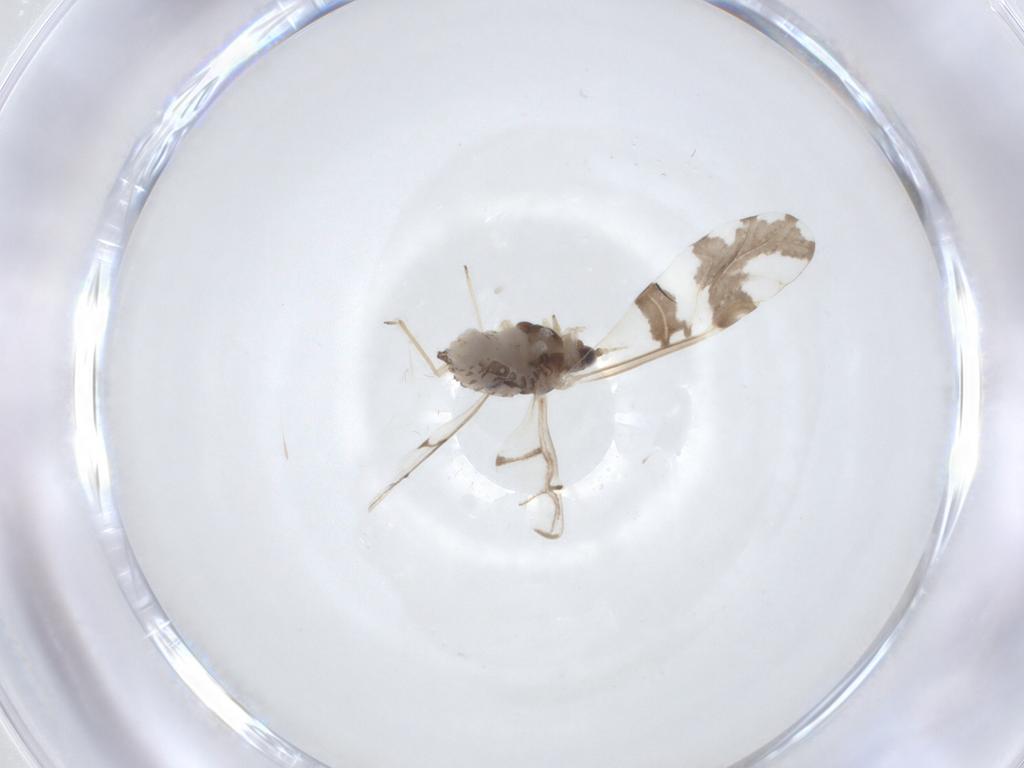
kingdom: Animalia
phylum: Arthropoda
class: Insecta
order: Hemiptera
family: Aphididae
